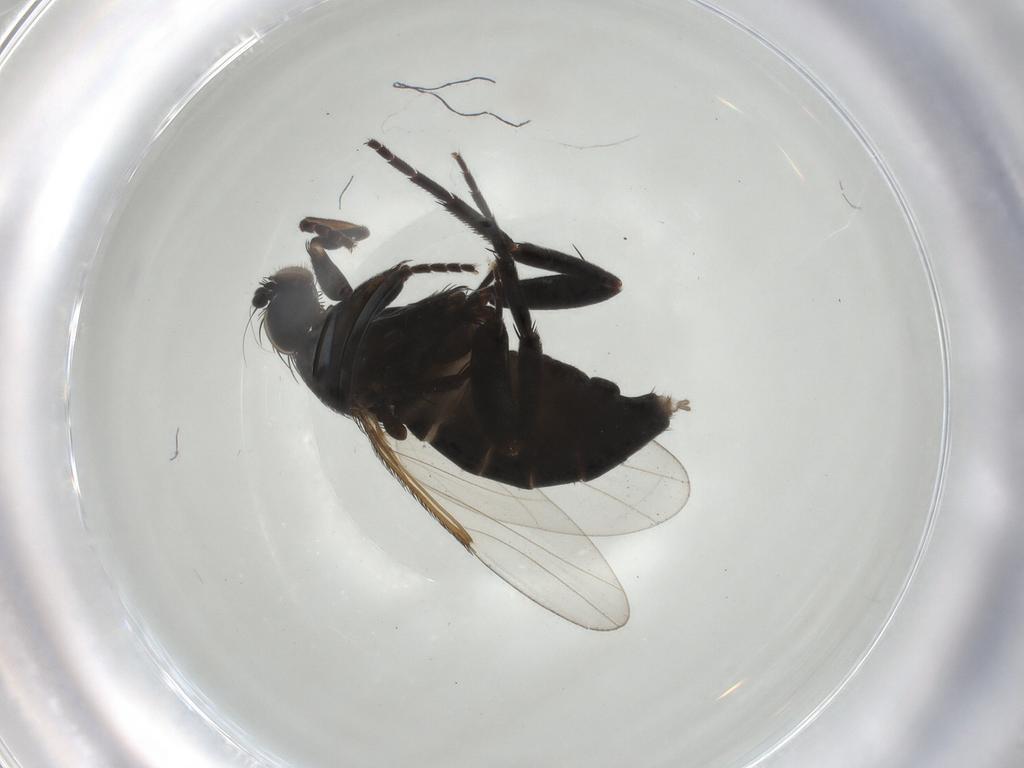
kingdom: Animalia
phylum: Arthropoda
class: Insecta
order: Diptera
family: Phoridae
